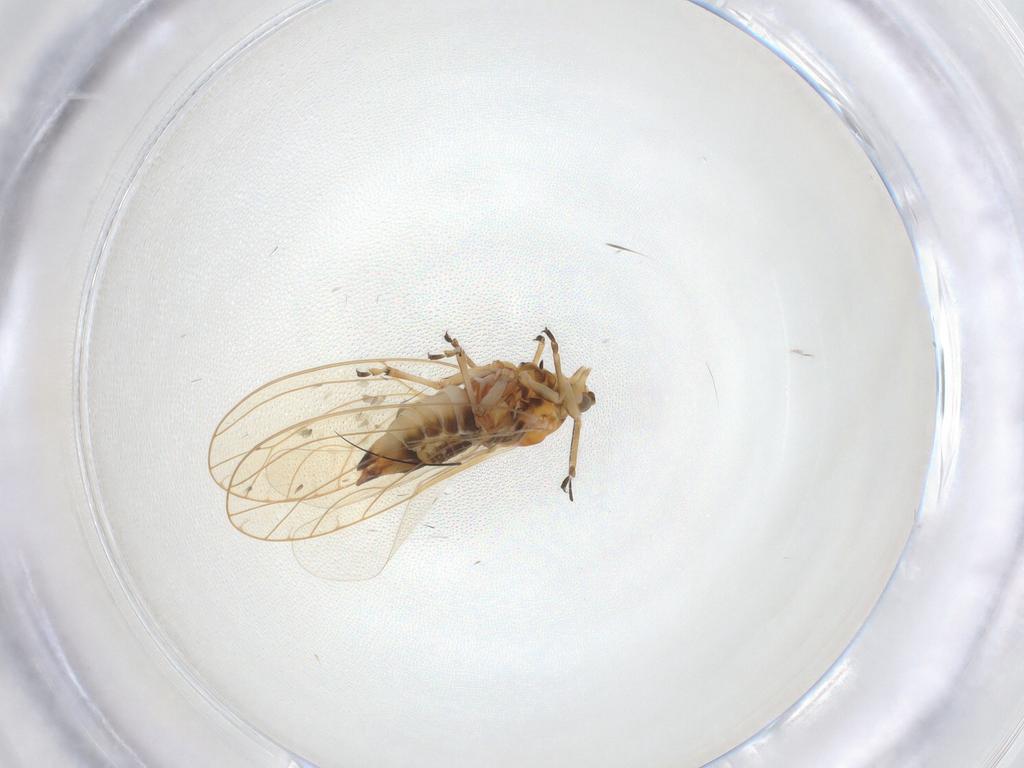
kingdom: Animalia
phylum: Arthropoda
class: Insecta
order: Hemiptera
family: Triozidae
